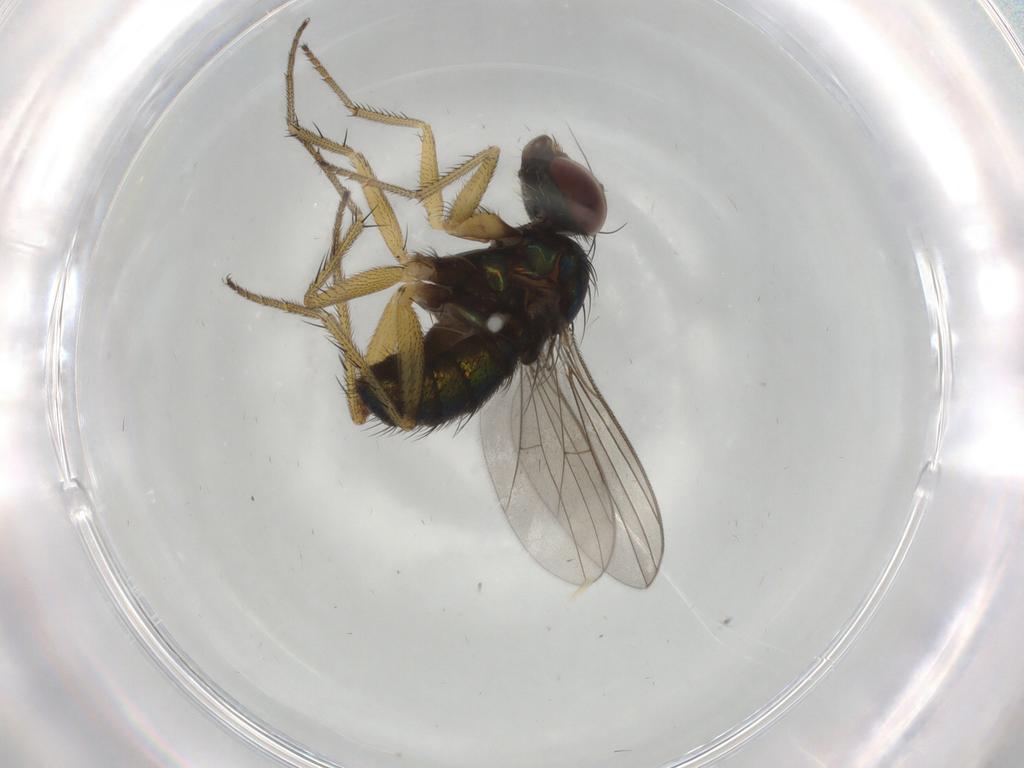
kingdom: Animalia
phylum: Arthropoda
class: Insecta
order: Diptera
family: Dolichopodidae
